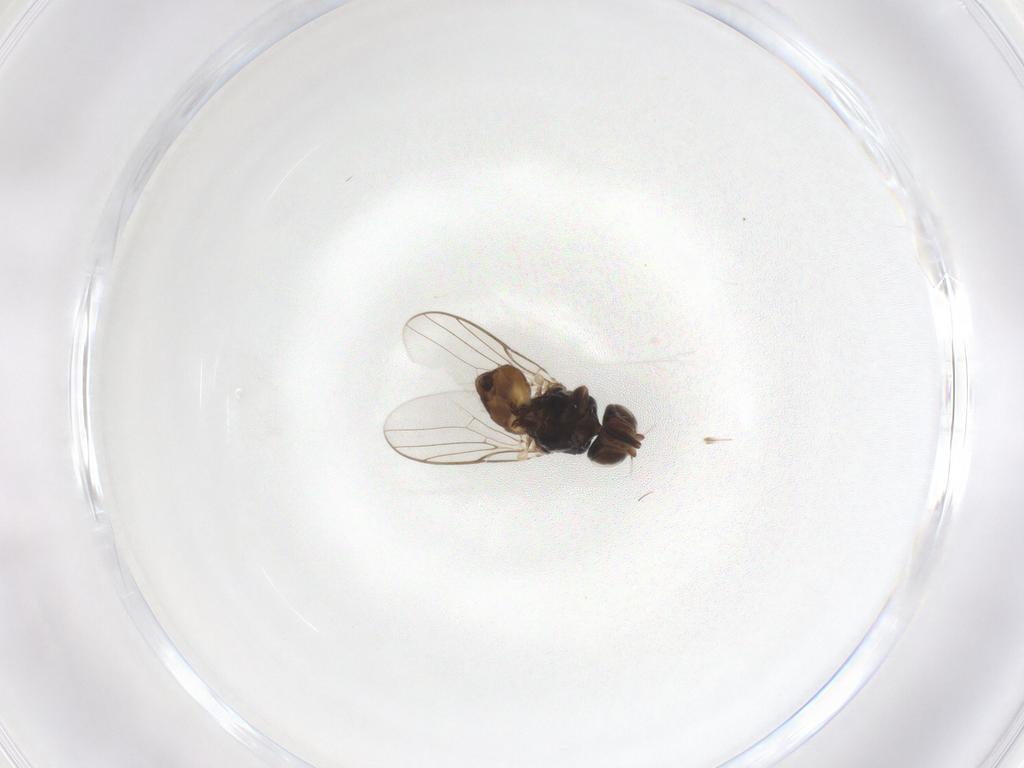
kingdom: Animalia
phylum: Arthropoda
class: Insecta
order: Diptera
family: Chloropidae
